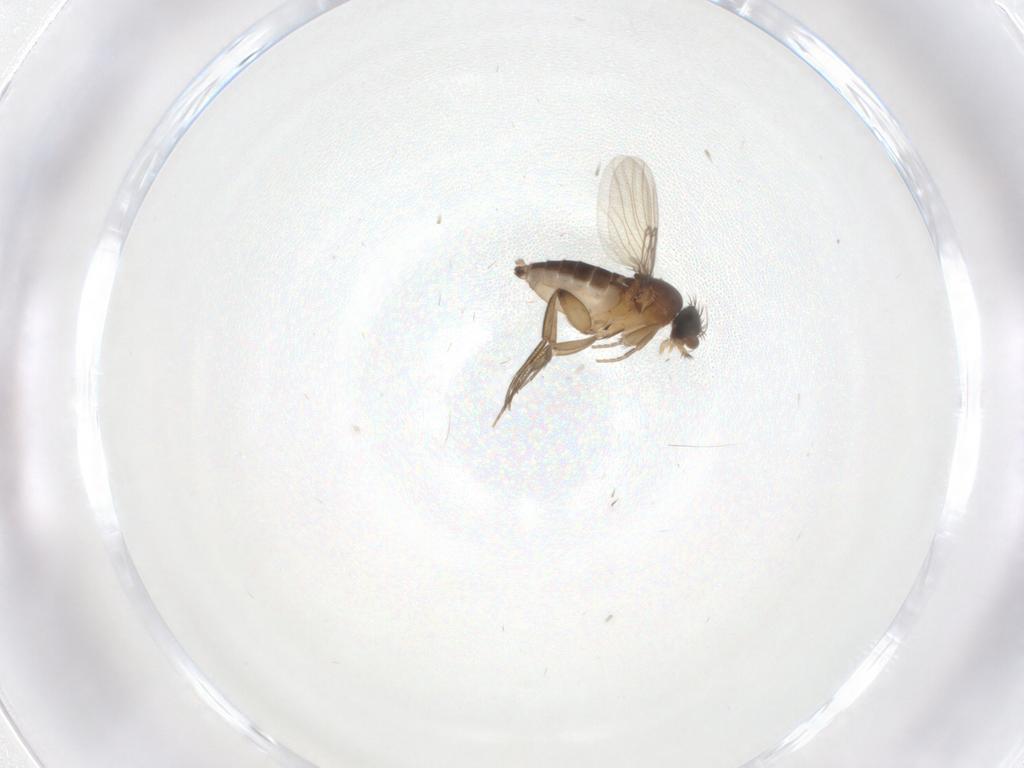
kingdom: Animalia
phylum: Arthropoda
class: Insecta
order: Diptera
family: Phoridae
